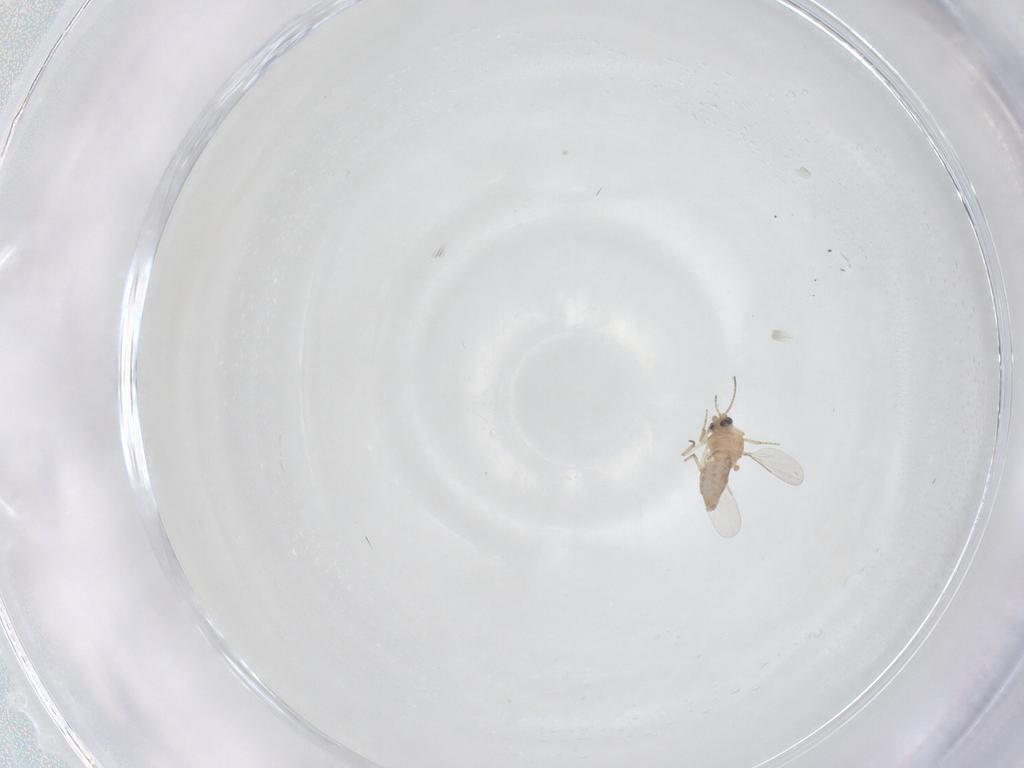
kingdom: Animalia
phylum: Arthropoda
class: Insecta
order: Diptera
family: Ceratopogonidae
